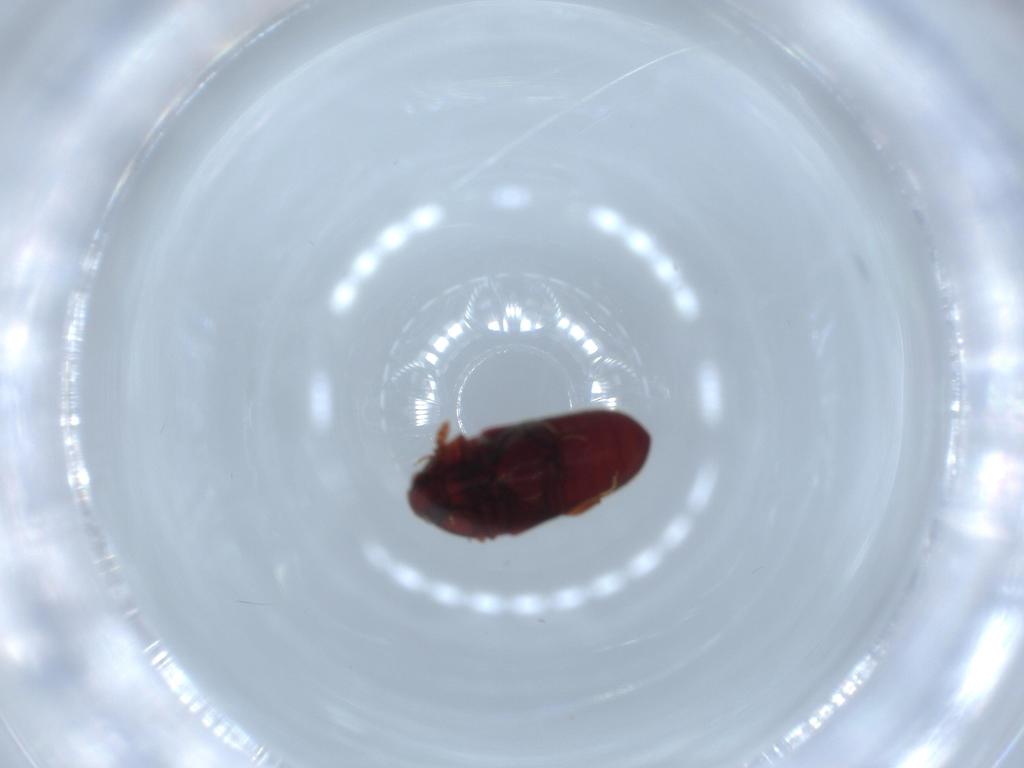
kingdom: Animalia
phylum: Arthropoda
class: Insecta
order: Coleoptera
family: Throscidae
